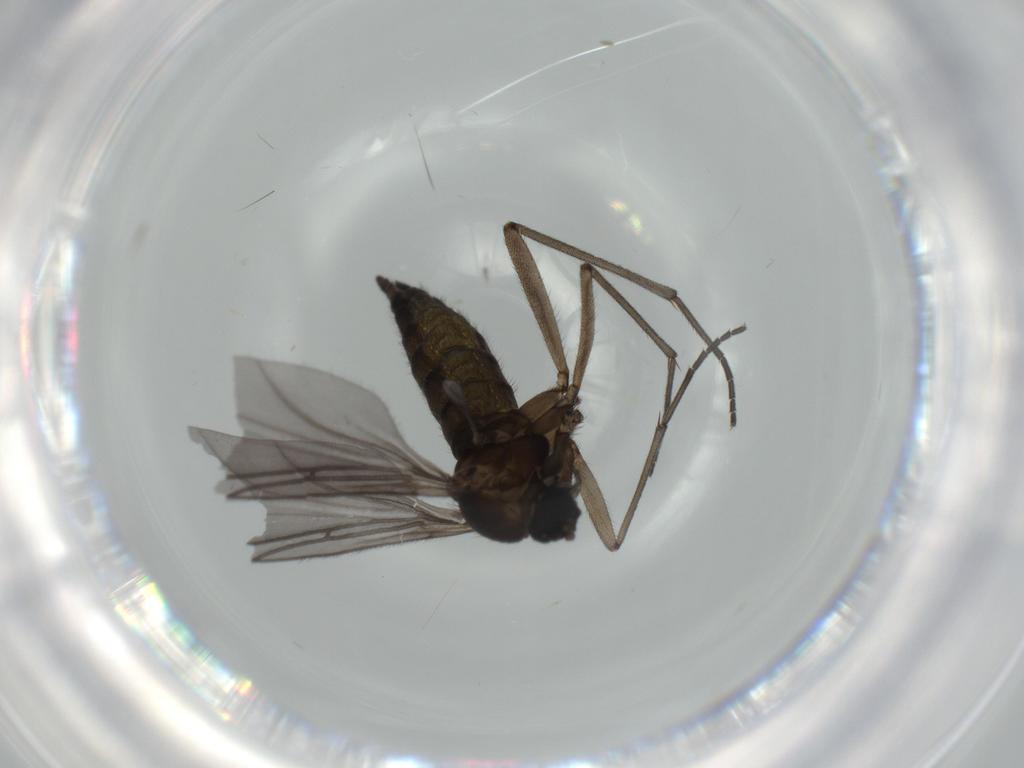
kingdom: Animalia
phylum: Arthropoda
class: Insecta
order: Diptera
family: Sciaridae
